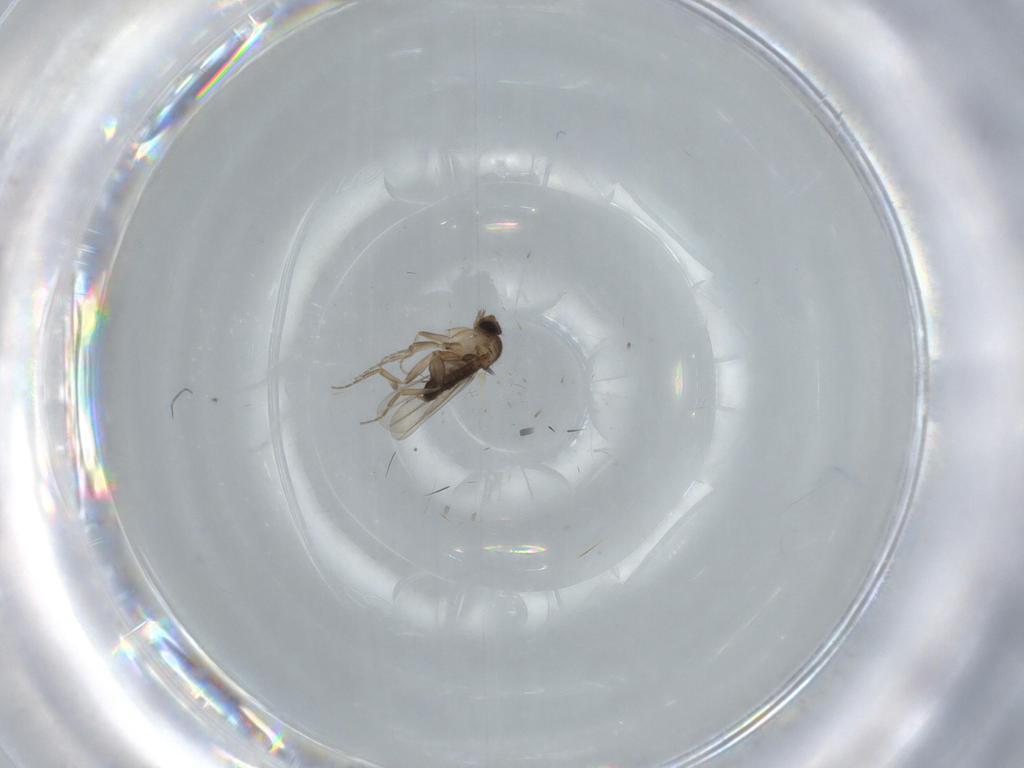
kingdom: Animalia
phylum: Arthropoda
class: Insecta
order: Diptera
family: Phoridae
